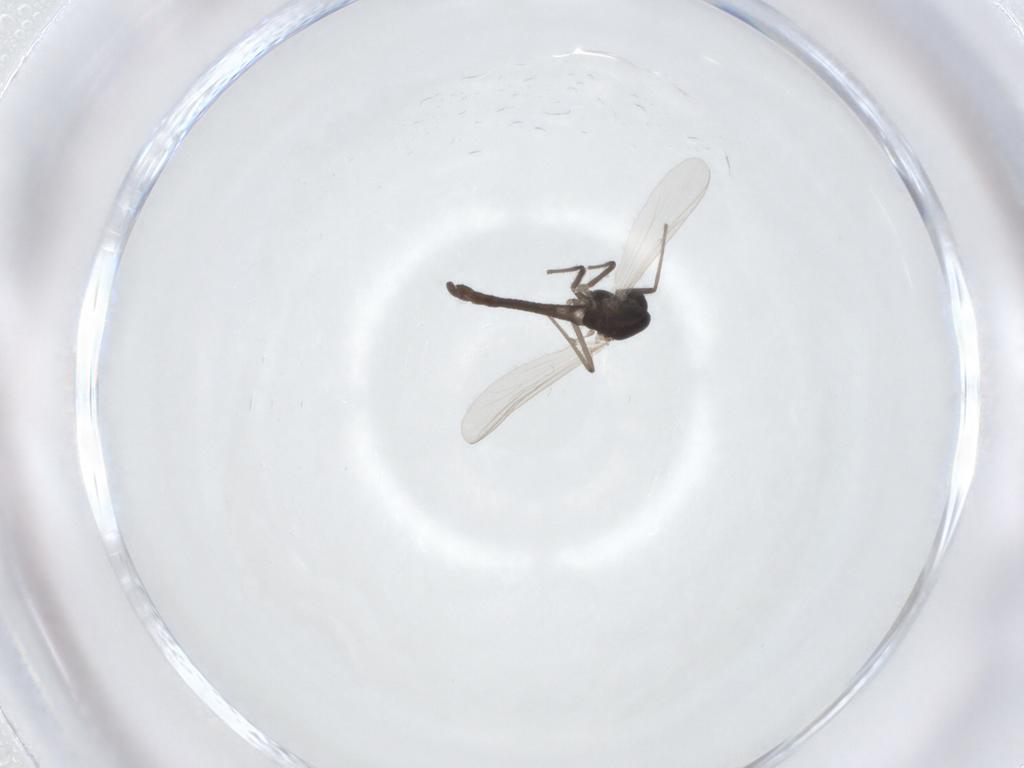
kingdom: Animalia
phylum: Arthropoda
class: Insecta
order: Diptera
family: Chironomidae
